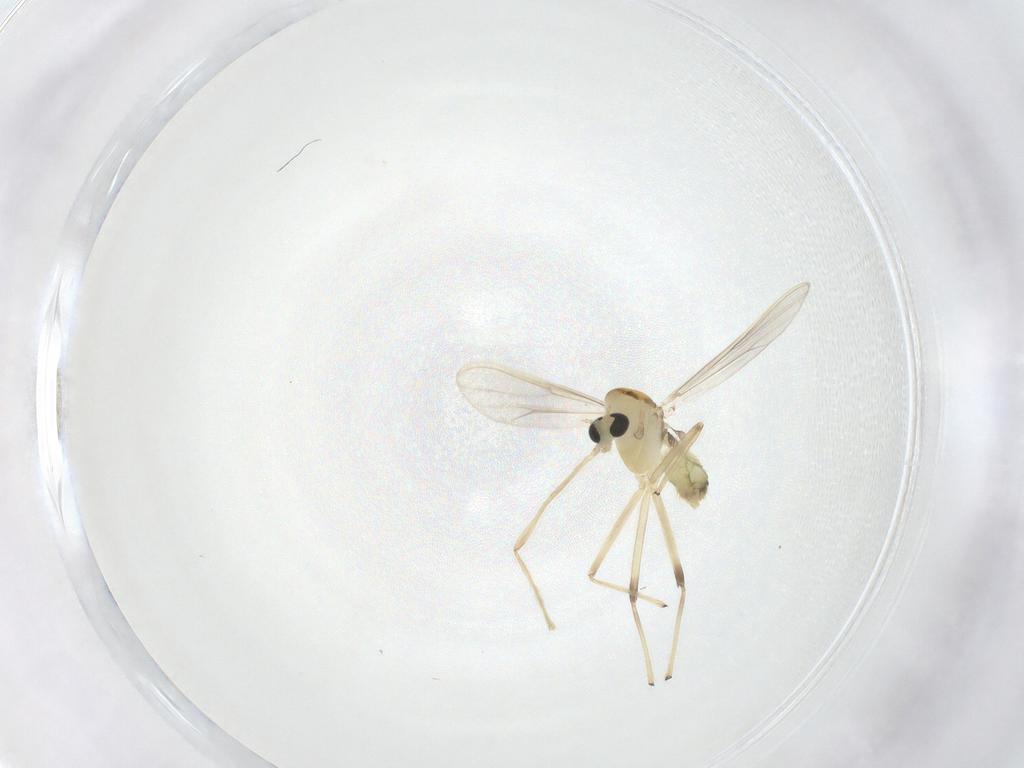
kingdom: Animalia
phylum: Arthropoda
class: Insecta
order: Diptera
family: Chironomidae
